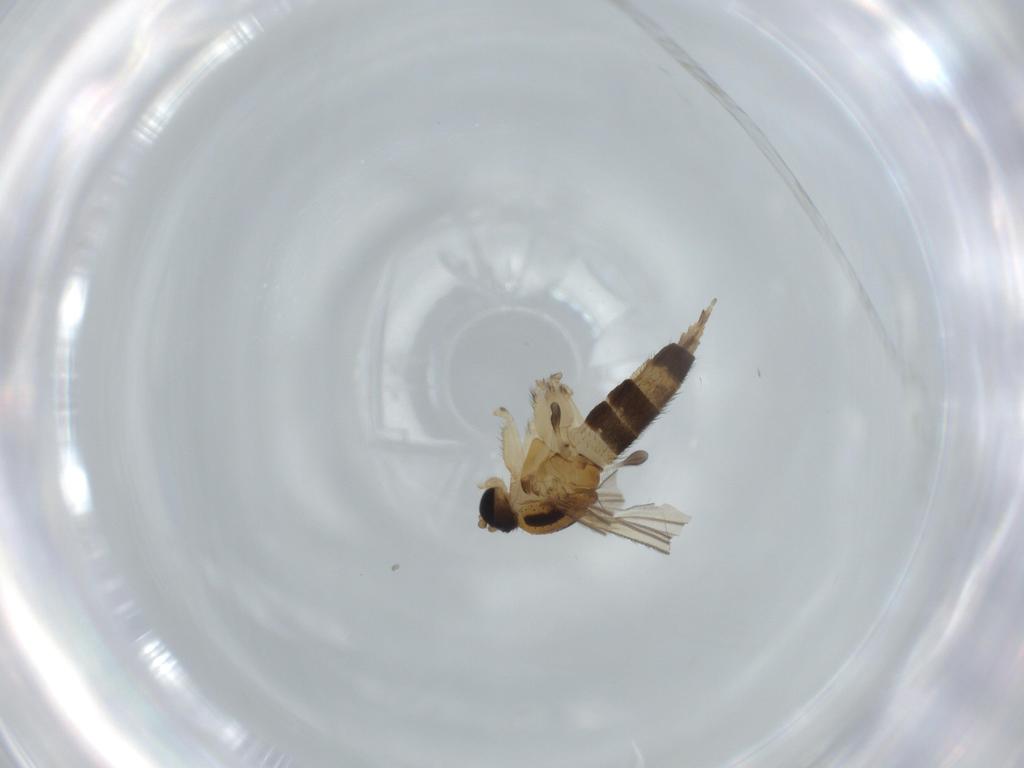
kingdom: Animalia
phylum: Arthropoda
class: Insecta
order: Diptera
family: Sciaridae
